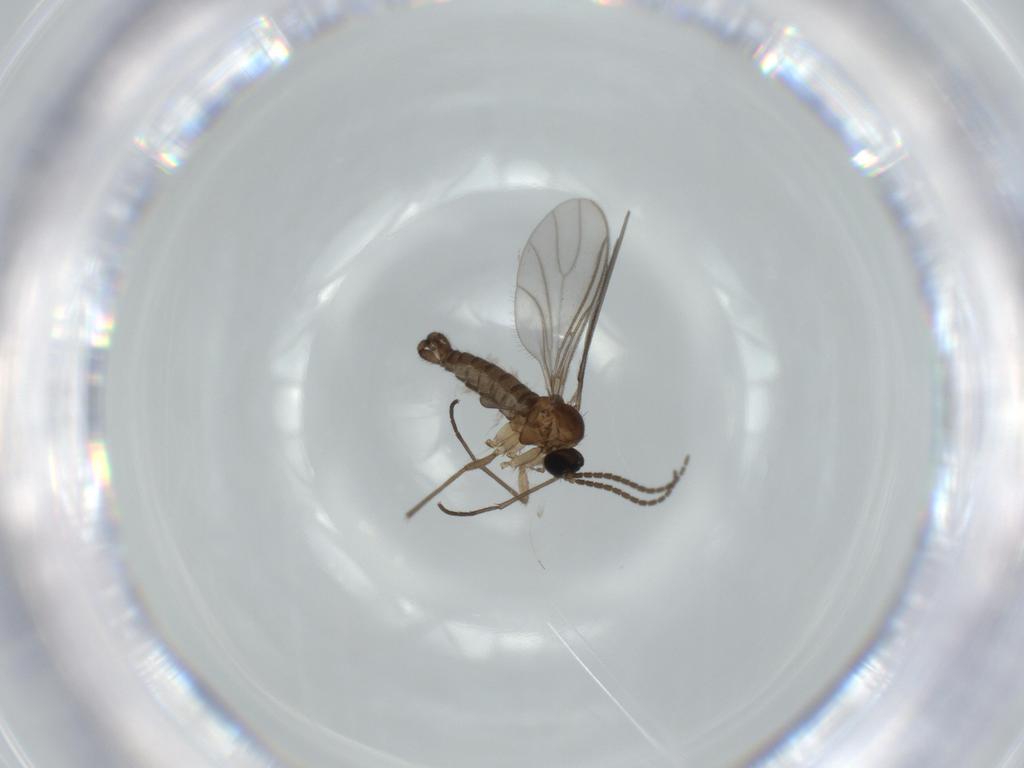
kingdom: Animalia
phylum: Arthropoda
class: Insecta
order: Diptera
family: Sciaridae
